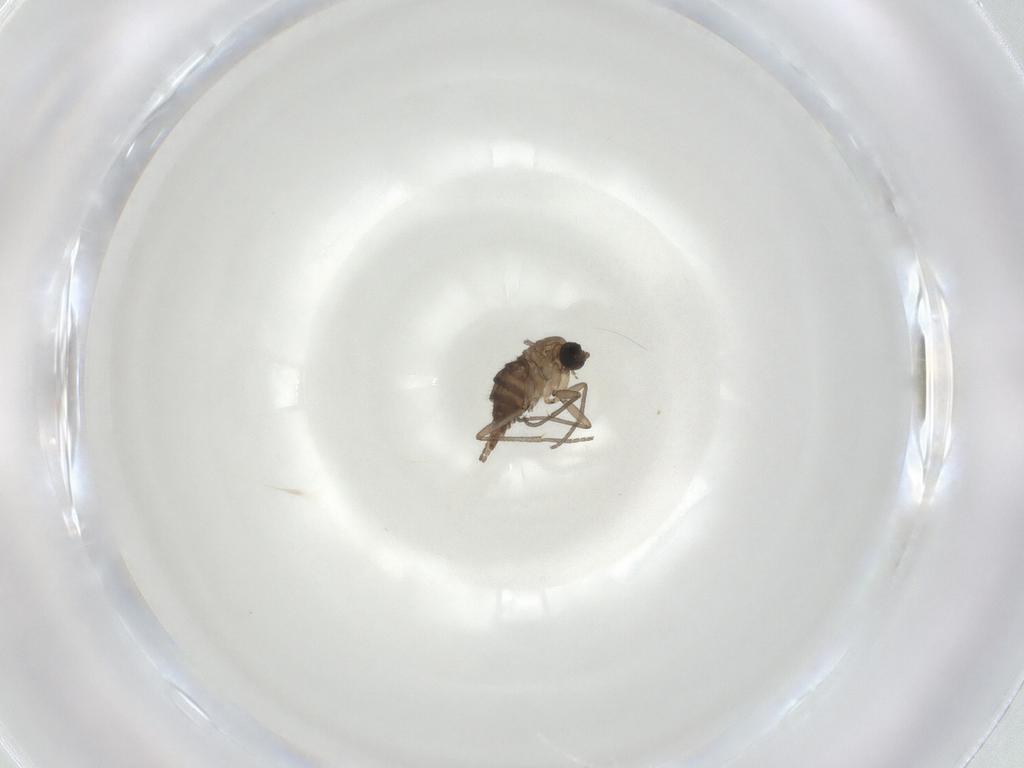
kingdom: Animalia
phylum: Arthropoda
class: Insecta
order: Diptera
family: Sciaridae
